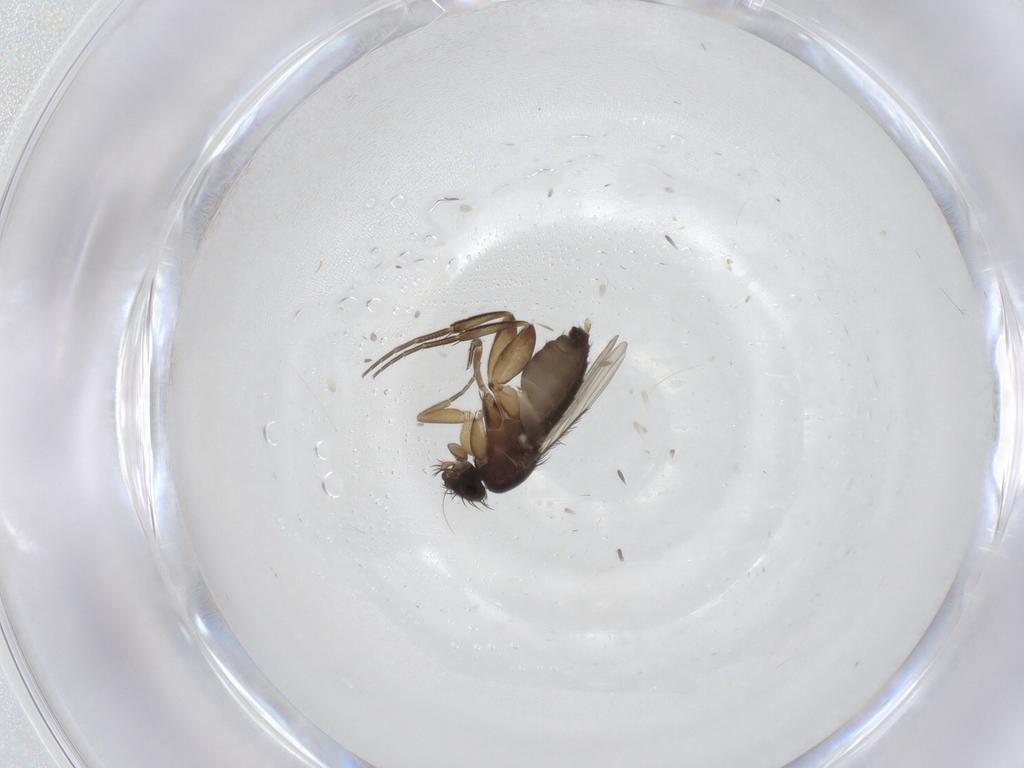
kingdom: Animalia
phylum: Arthropoda
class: Insecta
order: Diptera
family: Phoridae
